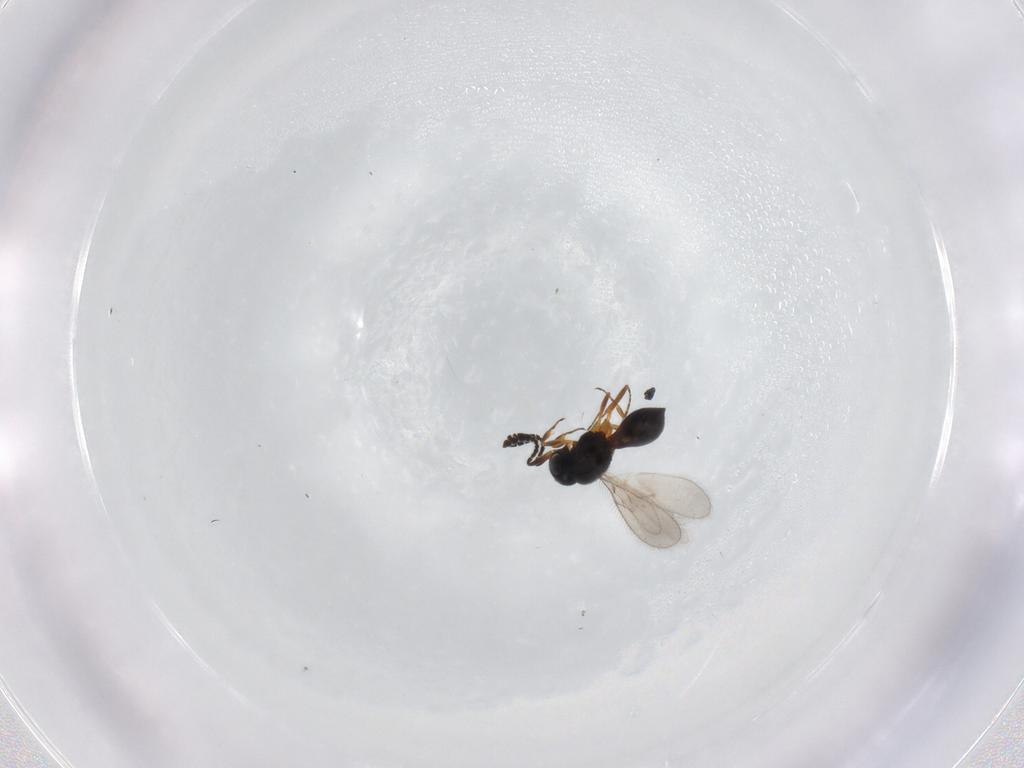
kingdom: Animalia
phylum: Arthropoda
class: Insecta
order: Hymenoptera
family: Scelionidae
